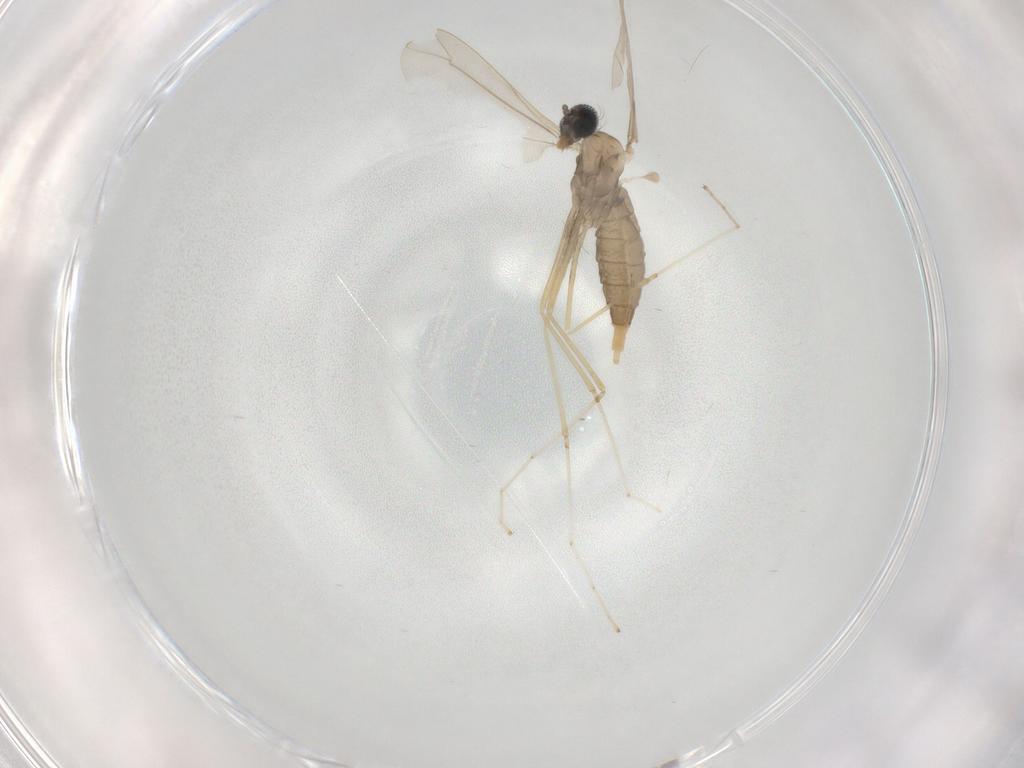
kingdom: Animalia
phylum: Arthropoda
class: Insecta
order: Diptera
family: Cecidomyiidae
